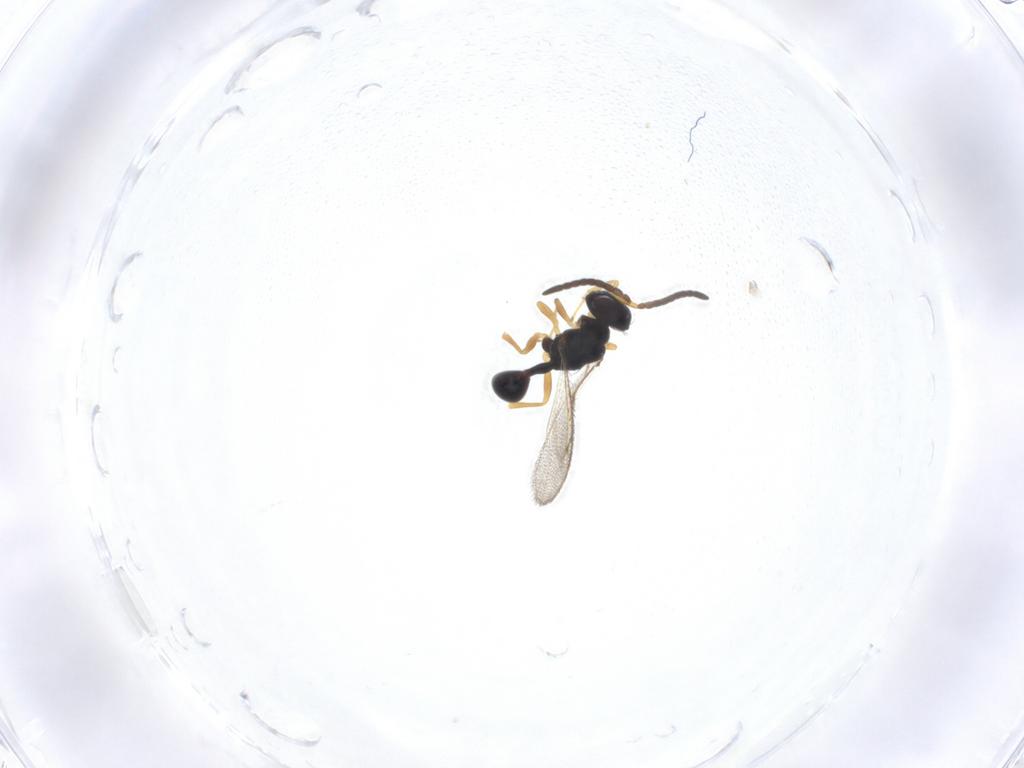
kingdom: Animalia
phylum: Arthropoda
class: Insecta
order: Hymenoptera
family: Diparidae
